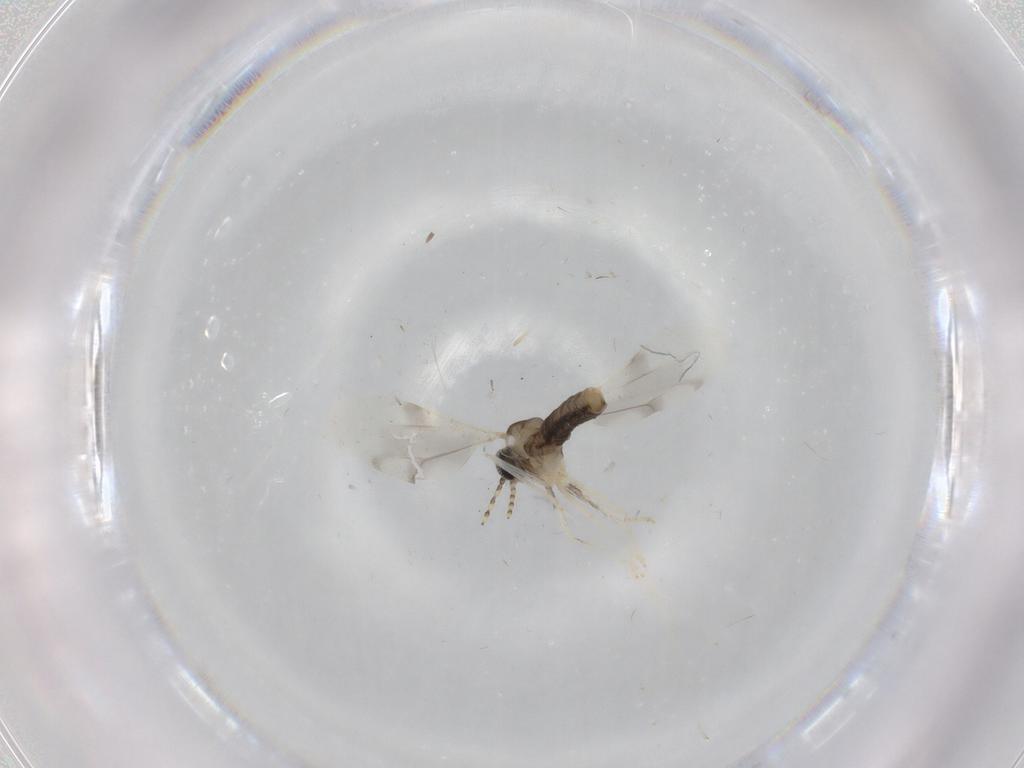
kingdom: Animalia
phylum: Arthropoda
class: Insecta
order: Diptera
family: Cecidomyiidae
